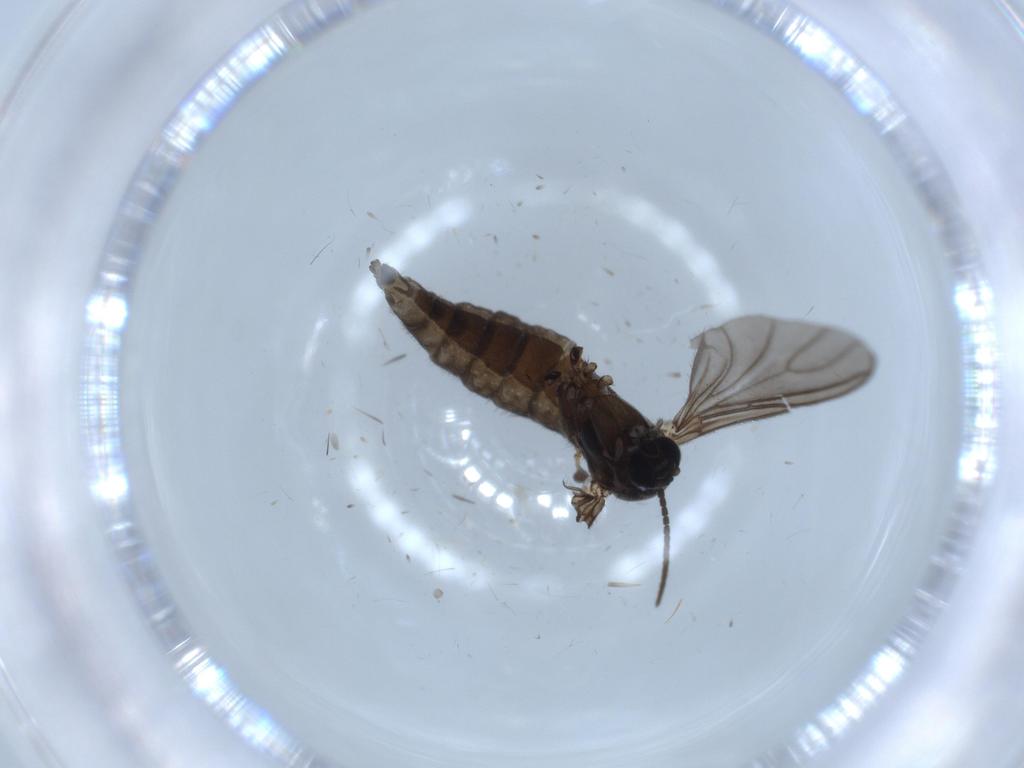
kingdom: Animalia
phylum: Arthropoda
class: Insecta
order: Diptera
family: Sciaridae
